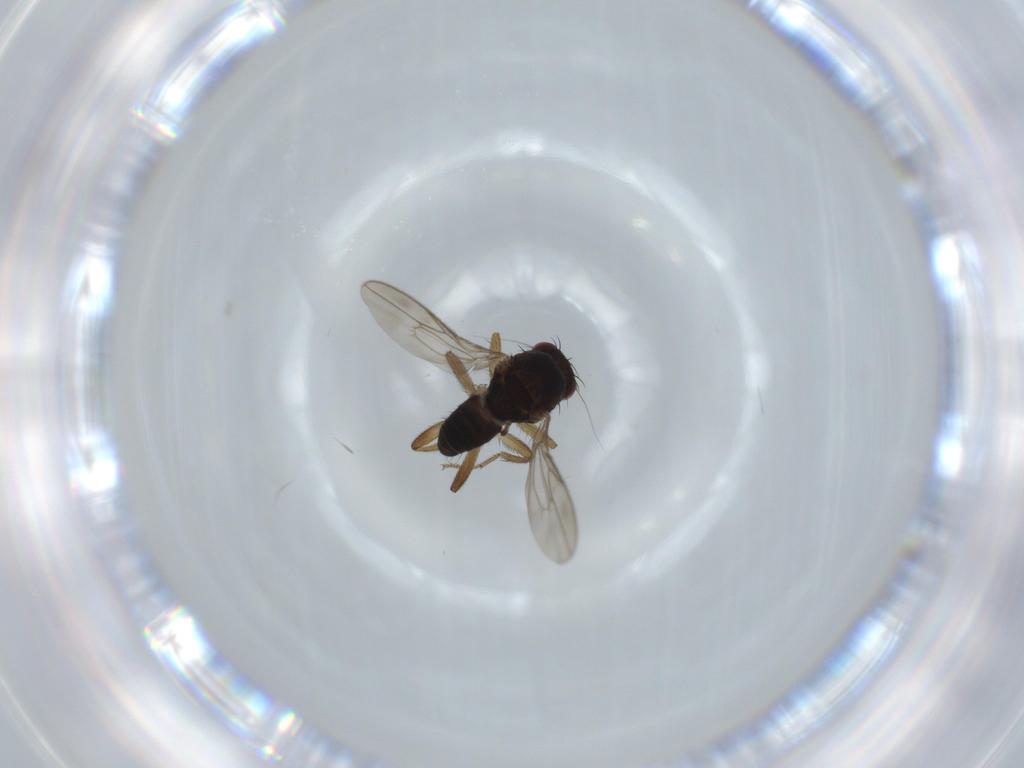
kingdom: Animalia
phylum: Arthropoda
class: Insecta
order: Diptera
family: Sphaeroceridae
